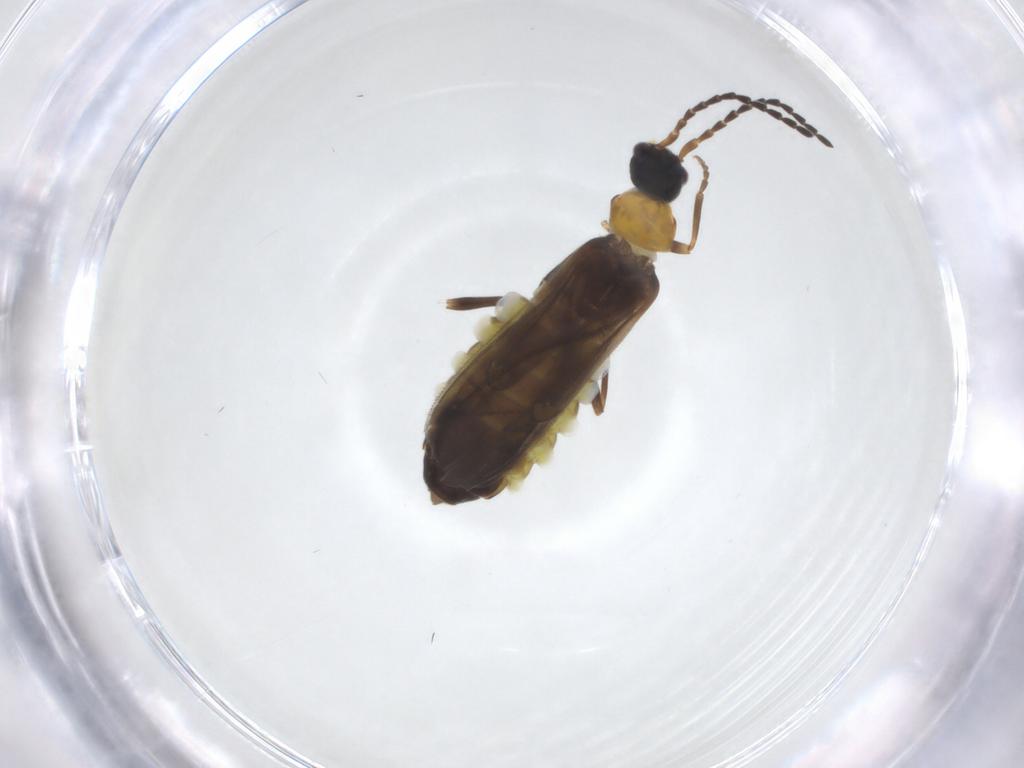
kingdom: Animalia
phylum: Arthropoda
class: Insecta
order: Coleoptera
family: Cantharidae
